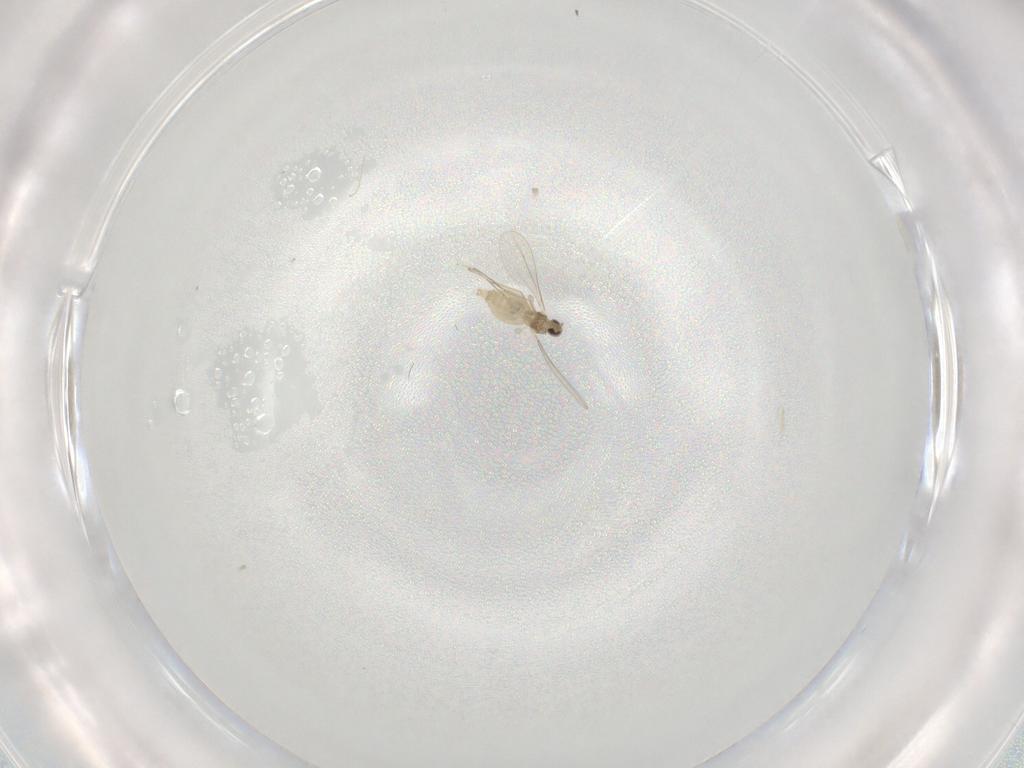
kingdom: Animalia
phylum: Arthropoda
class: Insecta
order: Diptera
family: Cecidomyiidae
